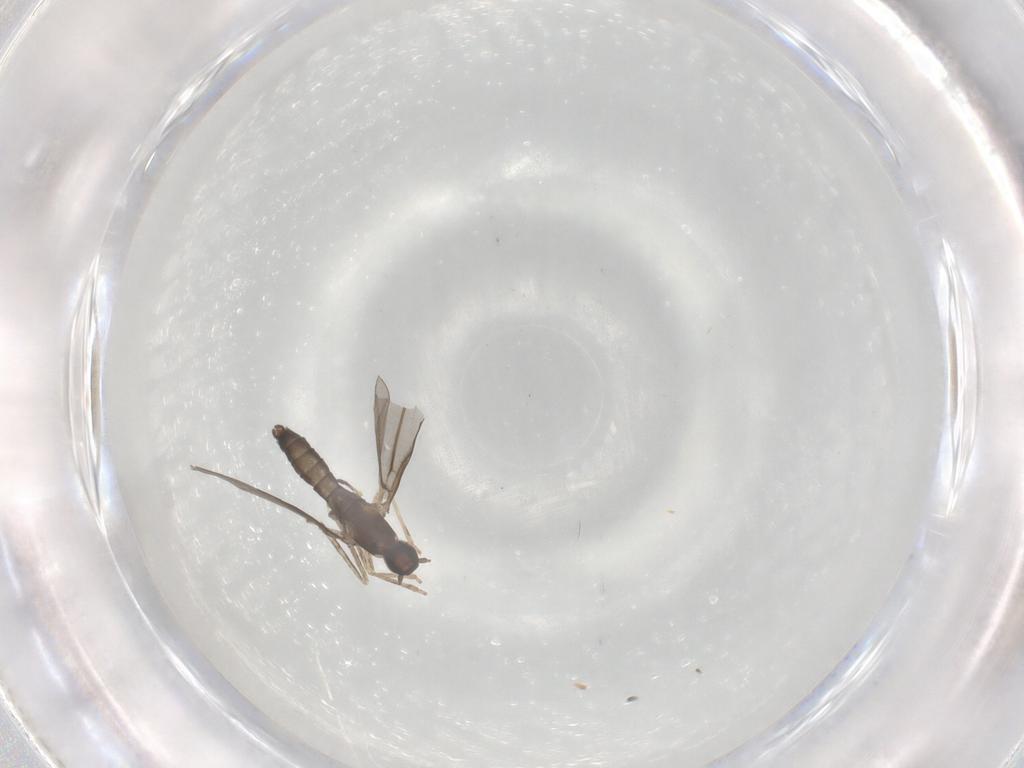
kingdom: Animalia
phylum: Arthropoda
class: Insecta
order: Diptera
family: Cecidomyiidae
